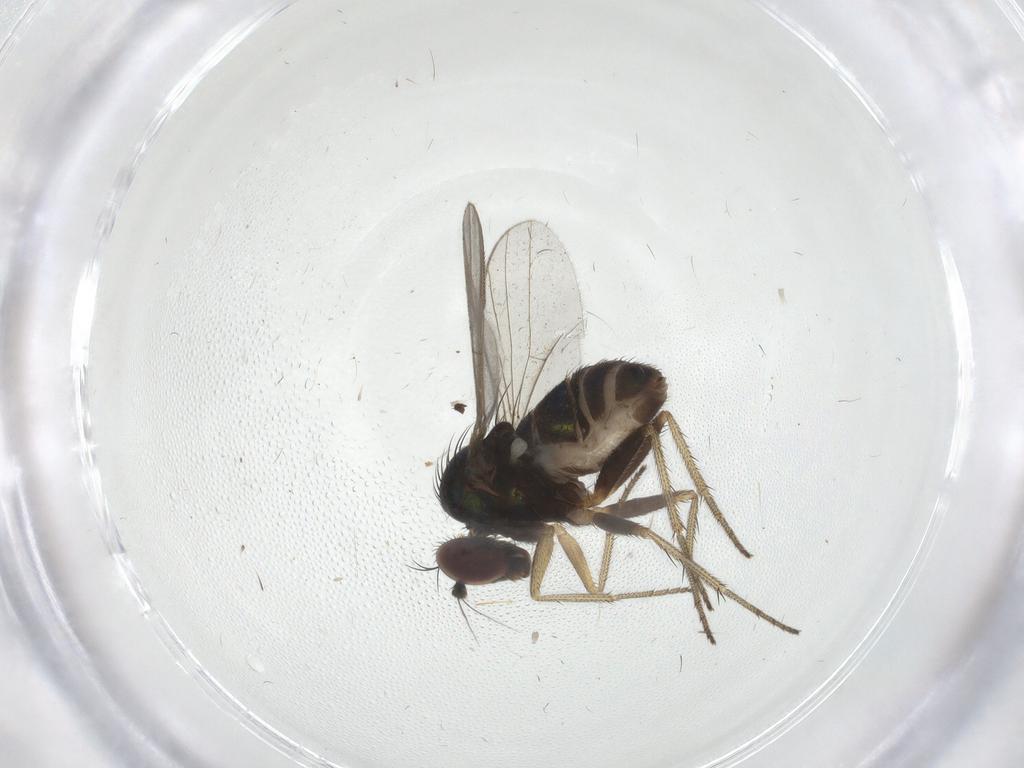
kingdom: Animalia
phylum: Arthropoda
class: Insecta
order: Diptera
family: Dolichopodidae
